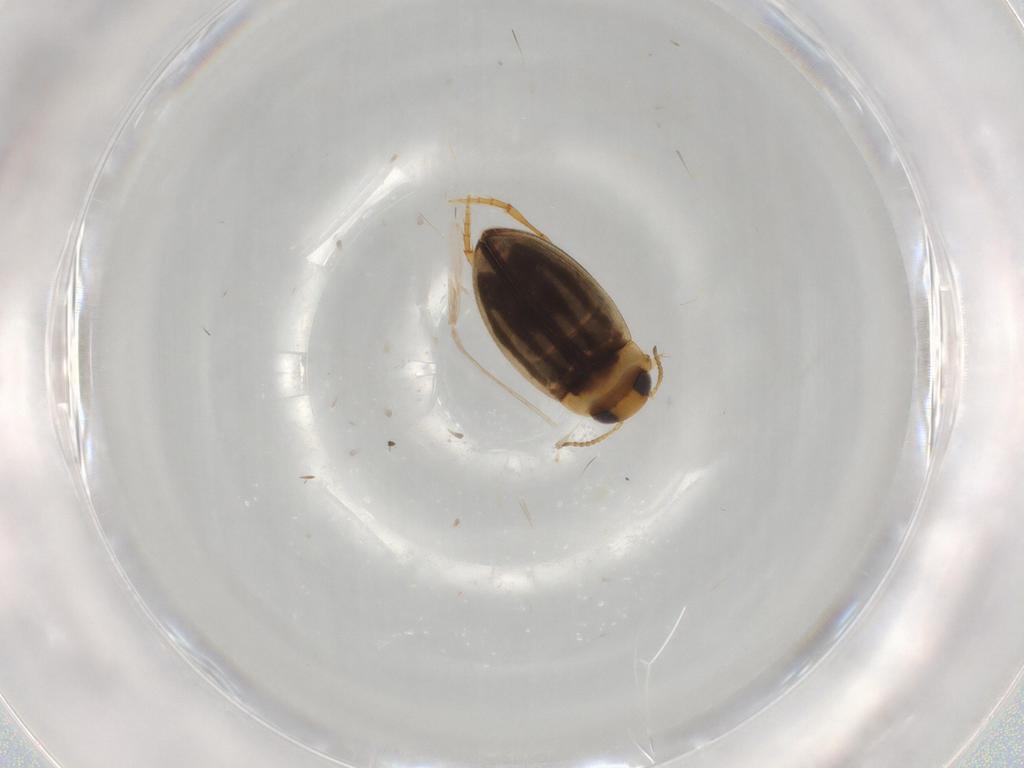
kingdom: Animalia
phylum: Arthropoda
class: Insecta
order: Coleoptera
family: Dytiscidae
